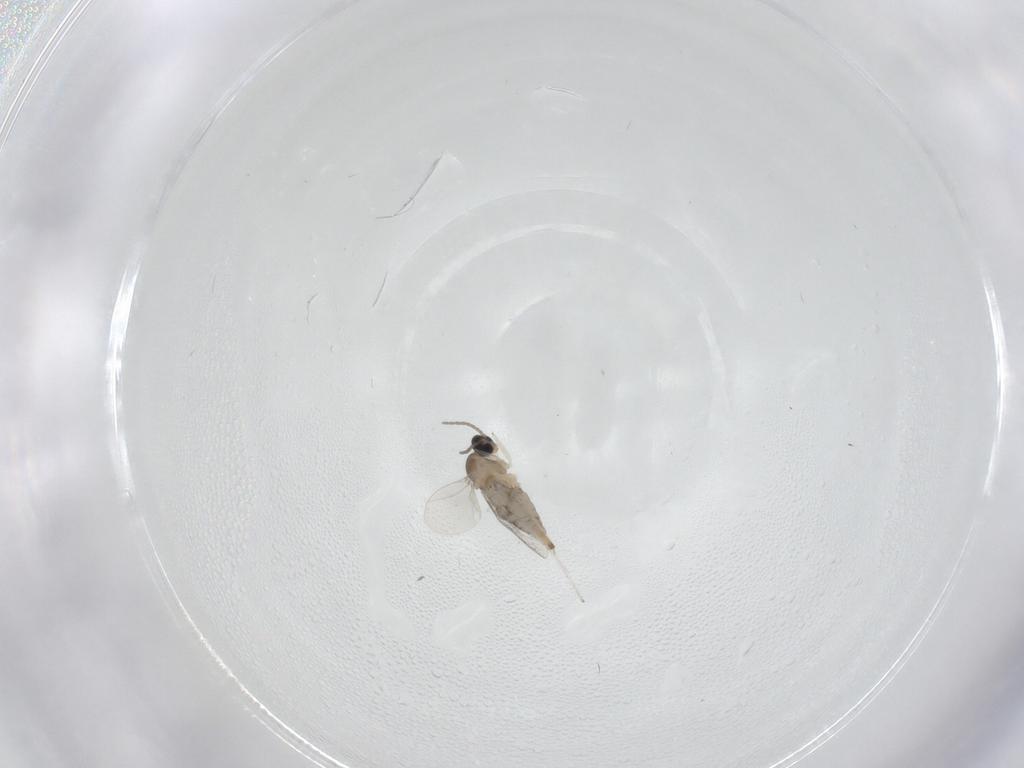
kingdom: Animalia
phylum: Arthropoda
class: Insecta
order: Diptera
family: Cecidomyiidae
